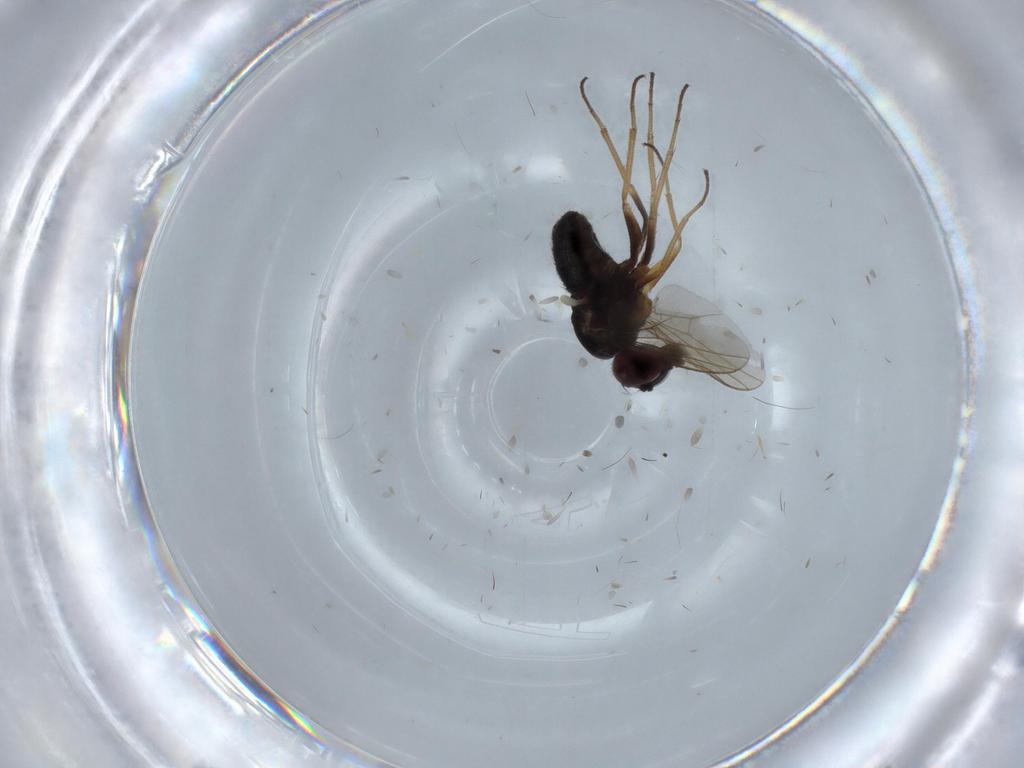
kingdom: Animalia
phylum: Arthropoda
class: Insecta
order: Diptera
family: Dolichopodidae
